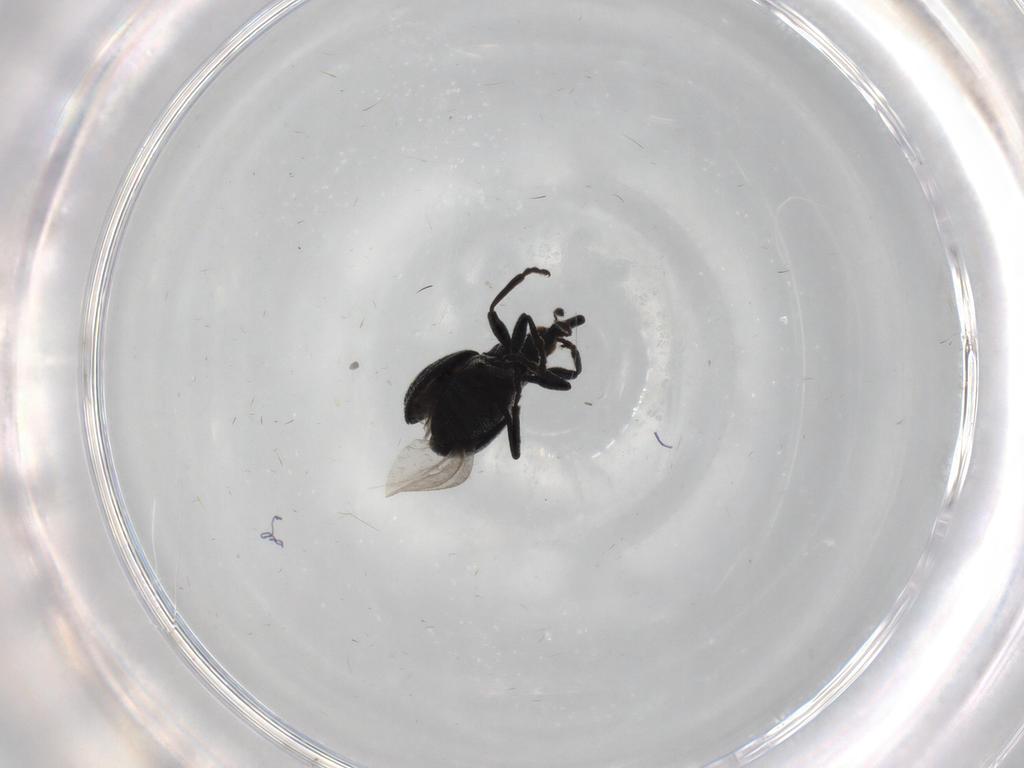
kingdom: Animalia
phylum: Arthropoda
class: Insecta
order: Coleoptera
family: Brentidae
